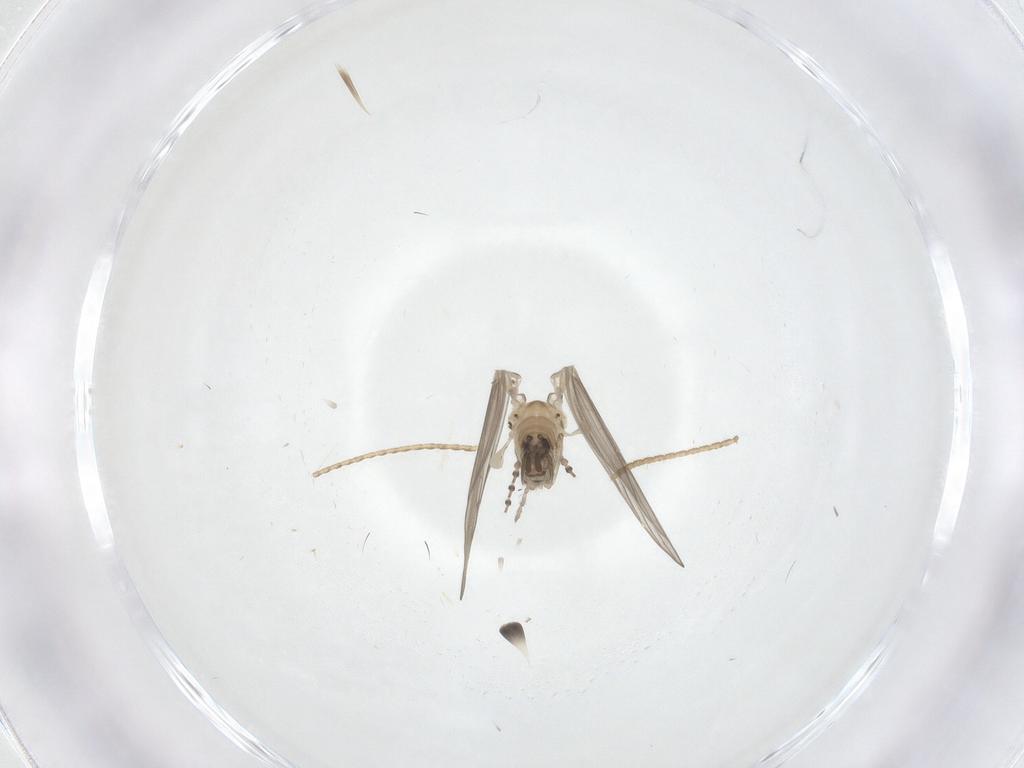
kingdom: Animalia
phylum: Arthropoda
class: Insecta
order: Diptera
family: Psychodidae
